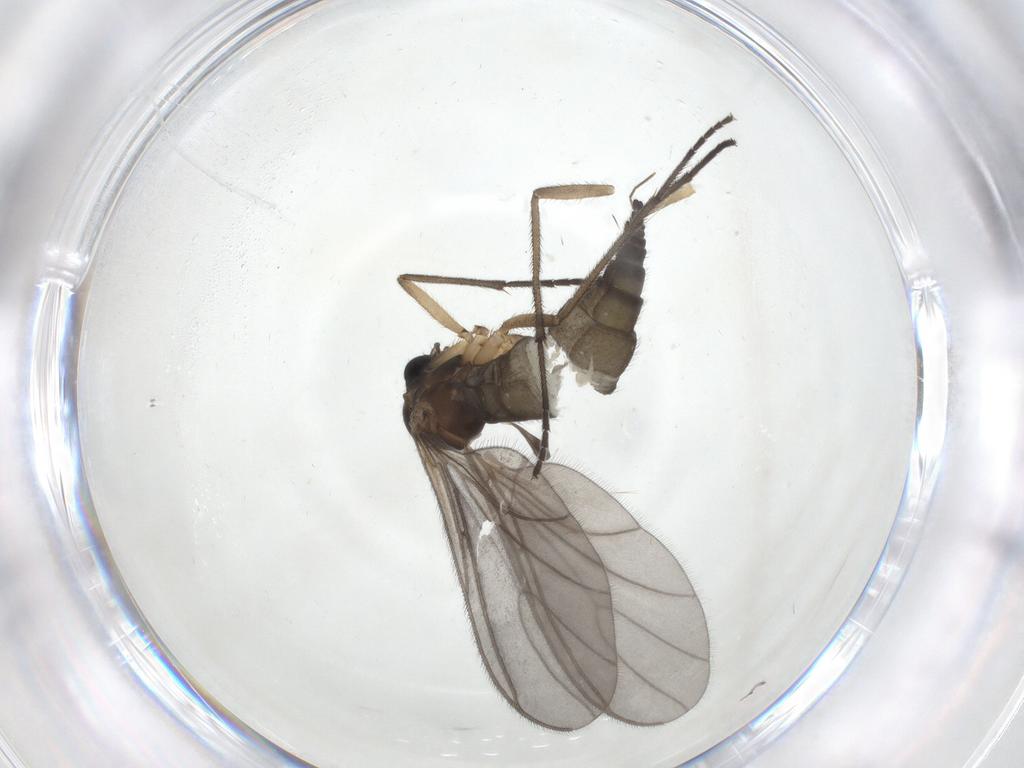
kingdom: Animalia
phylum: Arthropoda
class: Insecta
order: Diptera
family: Sciaridae
